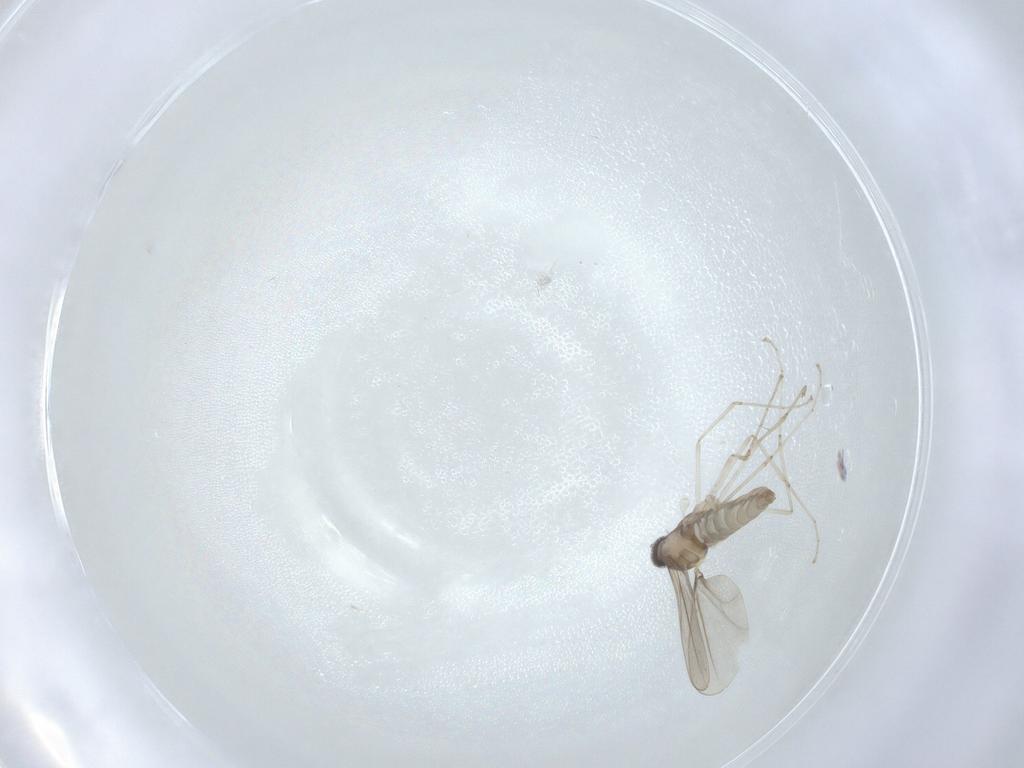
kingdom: Animalia
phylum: Arthropoda
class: Insecta
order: Diptera
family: Cecidomyiidae
